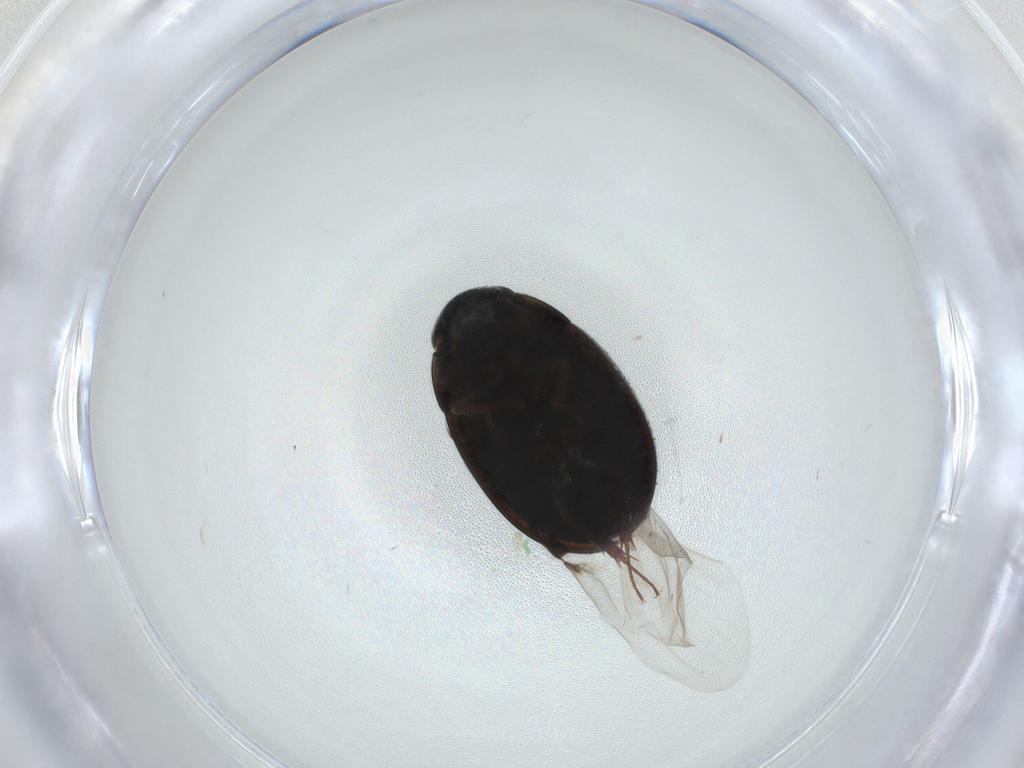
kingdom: Animalia
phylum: Arthropoda
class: Insecta
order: Coleoptera
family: Hydrophilidae
